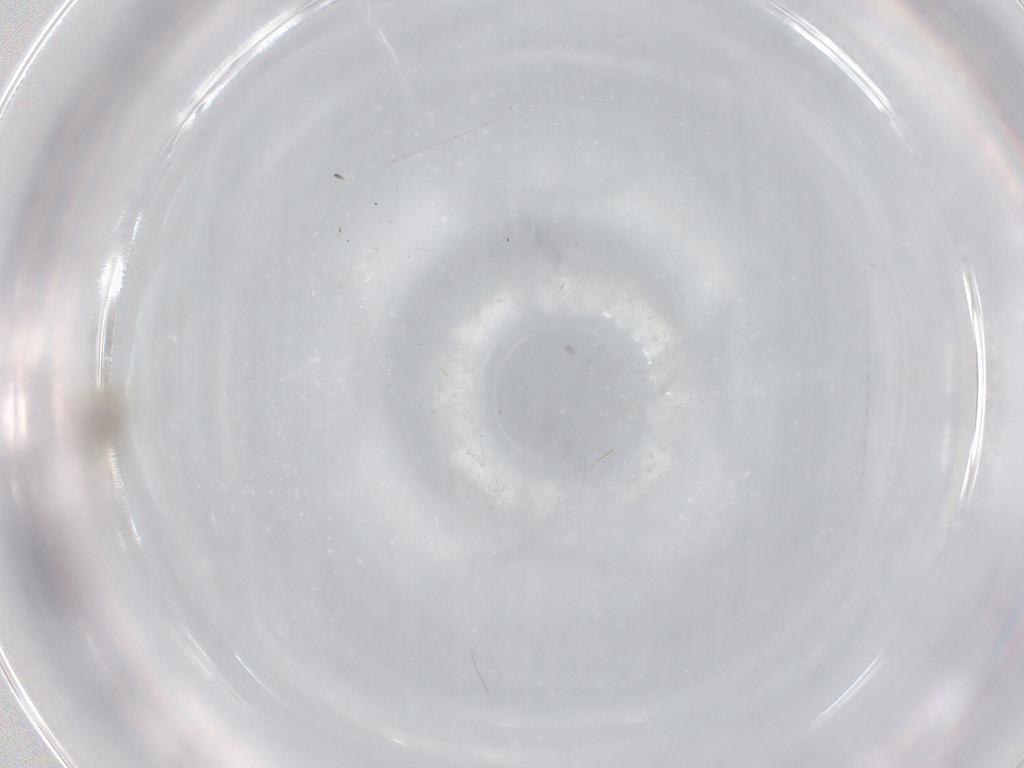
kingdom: Animalia
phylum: Arthropoda
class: Insecta
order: Diptera
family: Cecidomyiidae
